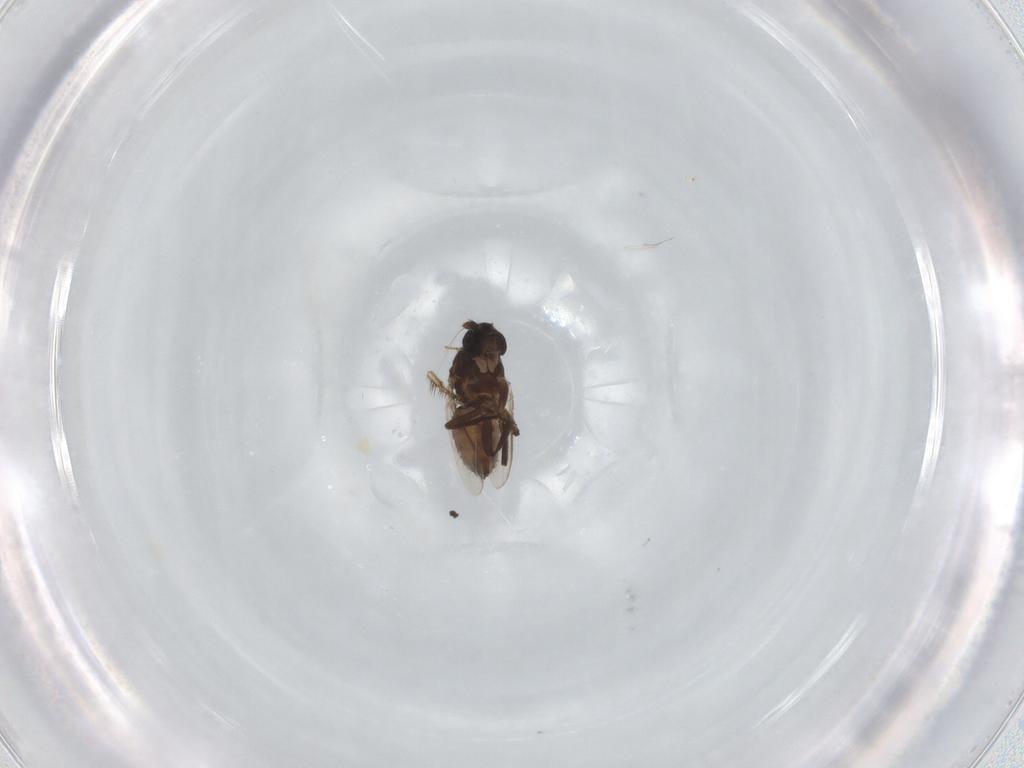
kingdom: Animalia
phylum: Arthropoda
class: Insecta
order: Diptera
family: Sphaeroceridae
